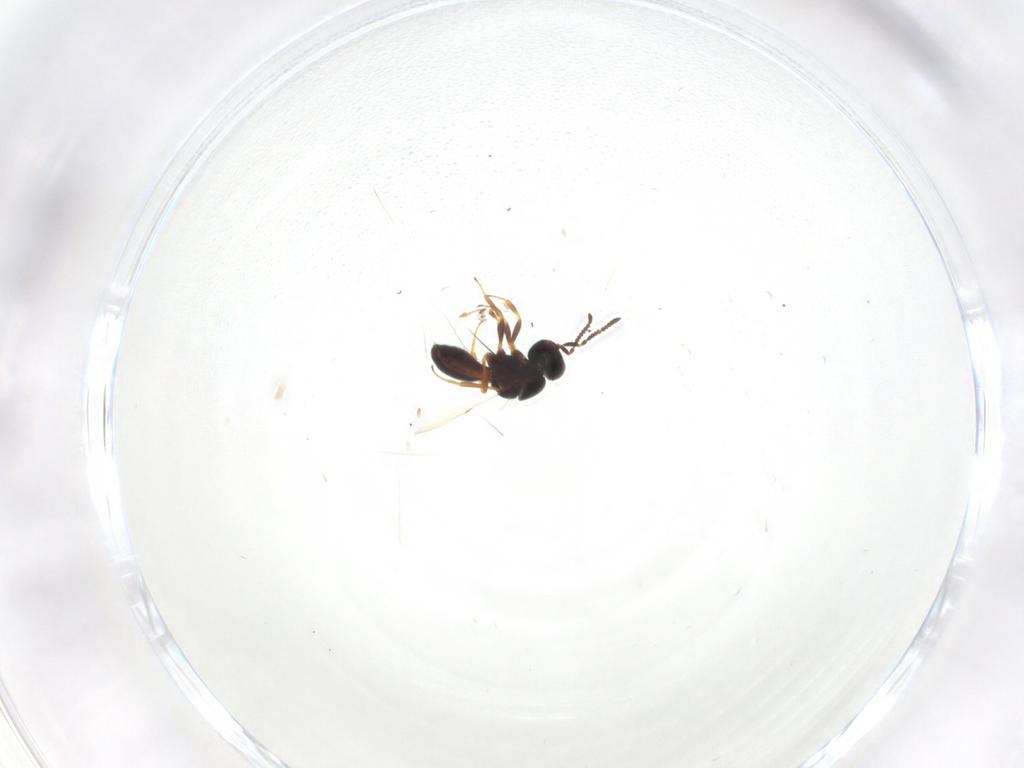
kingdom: Animalia
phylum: Arthropoda
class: Insecta
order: Hymenoptera
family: Scelionidae
